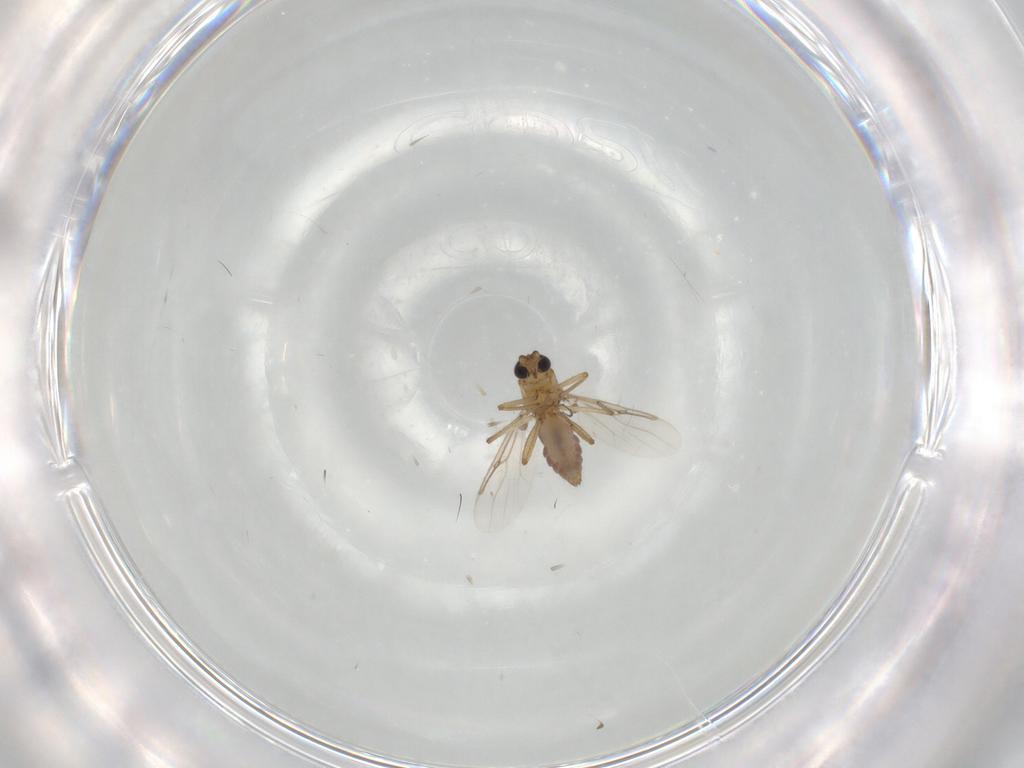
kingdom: Animalia
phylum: Arthropoda
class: Insecta
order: Diptera
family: Ceratopogonidae
